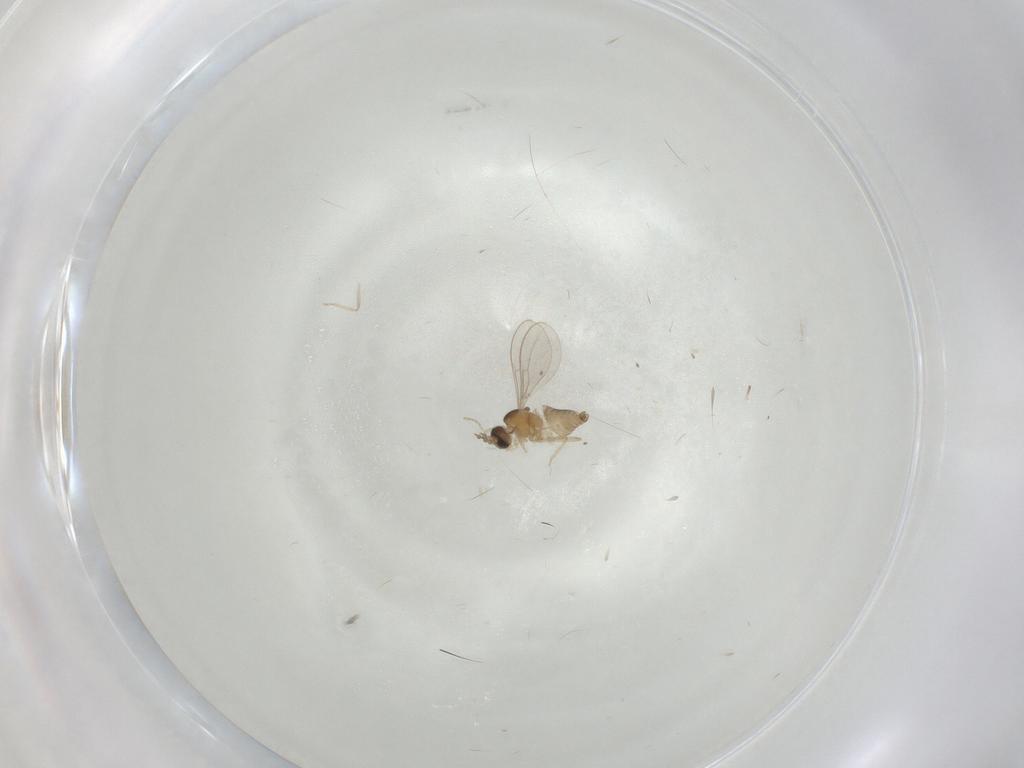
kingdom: Animalia
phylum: Arthropoda
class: Insecta
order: Diptera
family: Cecidomyiidae
